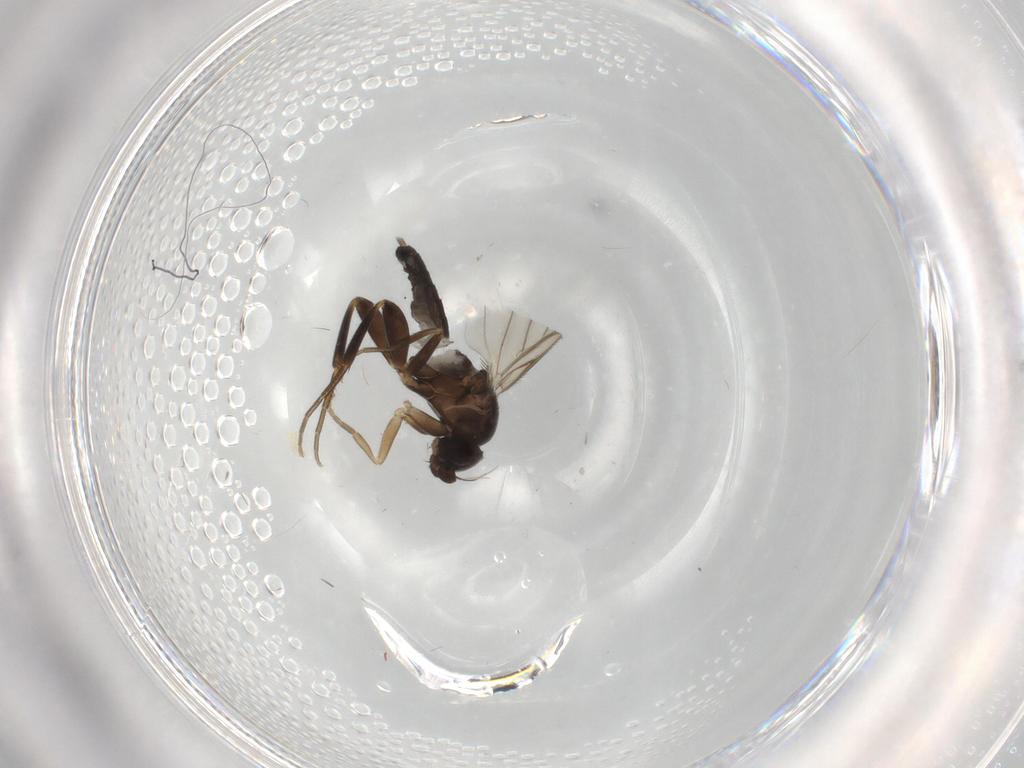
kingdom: Animalia
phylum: Arthropoda
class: Insecta
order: Diptera
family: Phoridae
